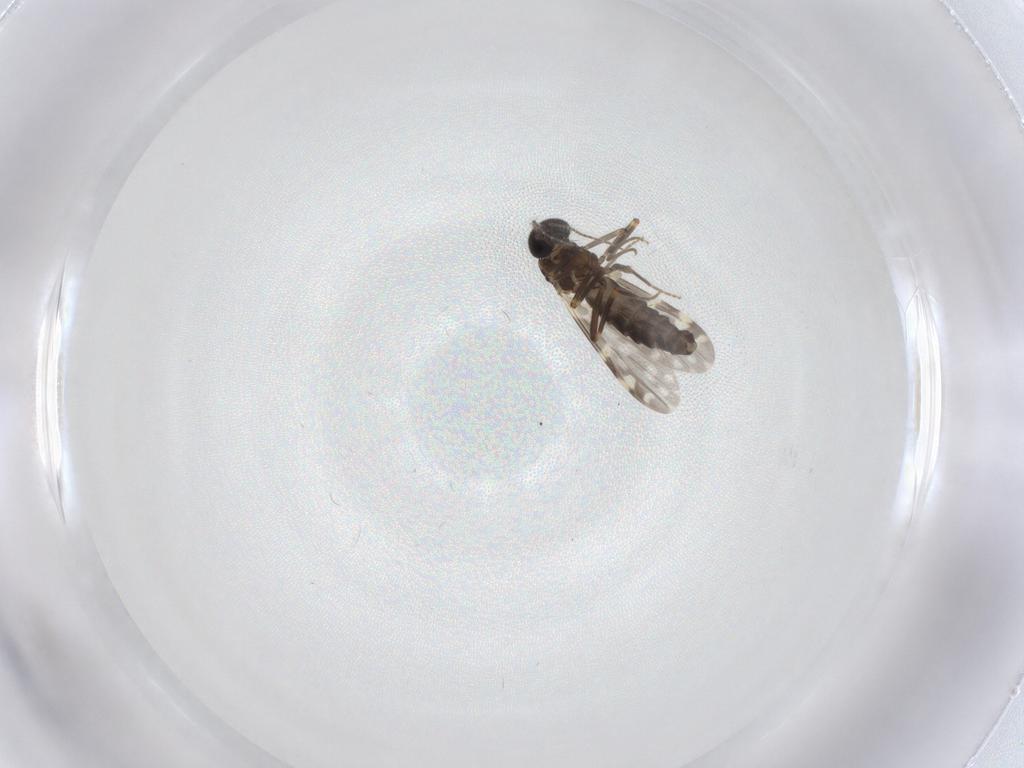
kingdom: Animalia
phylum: Arthropoda
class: Insecta
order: Diptera
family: Ceratopogonidae
